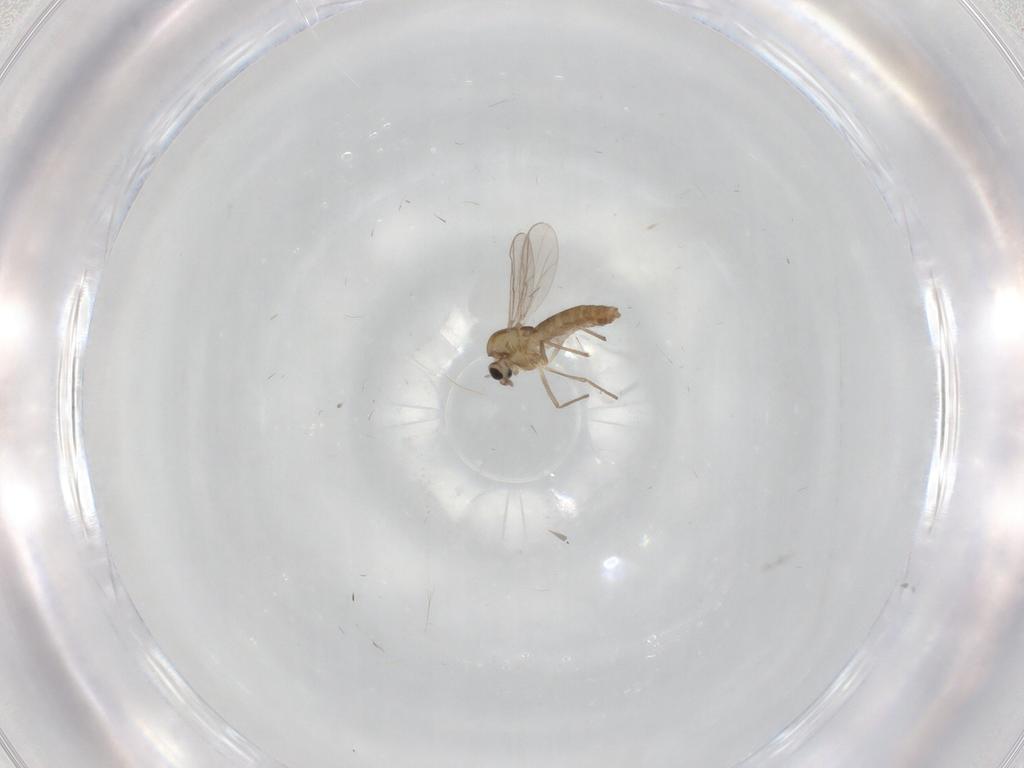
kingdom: Animalia
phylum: Arthropoda
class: Insecta
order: Diptera
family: Chironomidae
